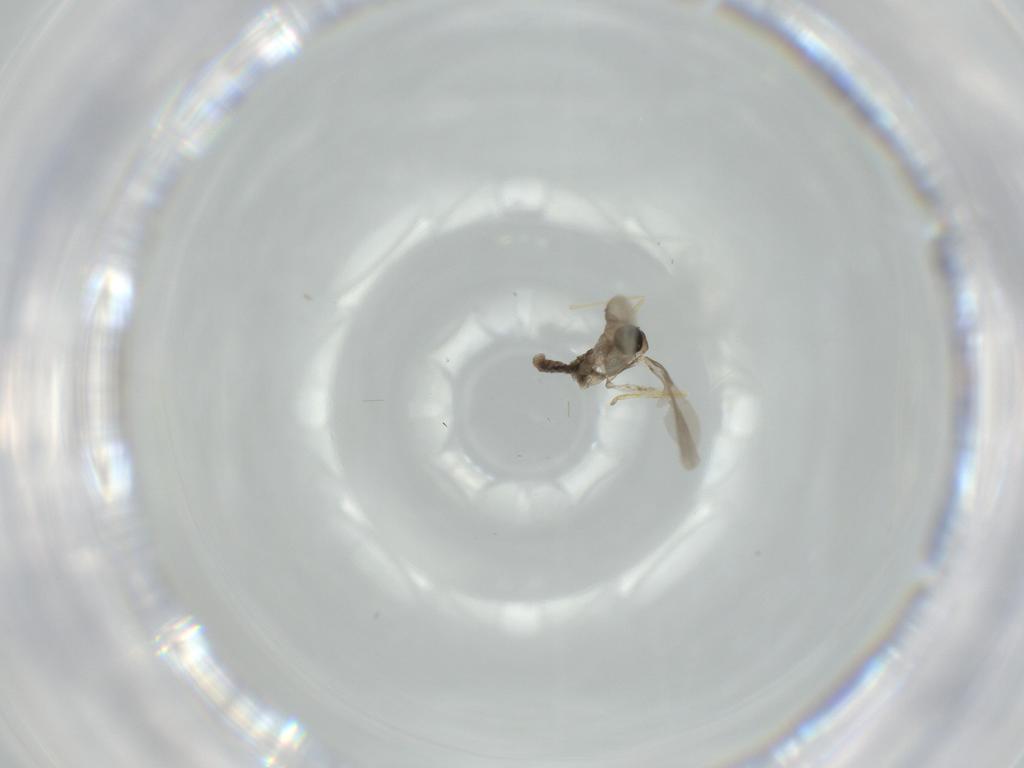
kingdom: Animalia
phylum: Arthropoda
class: Insecta
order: Diptera
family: Cecidomyiidae
